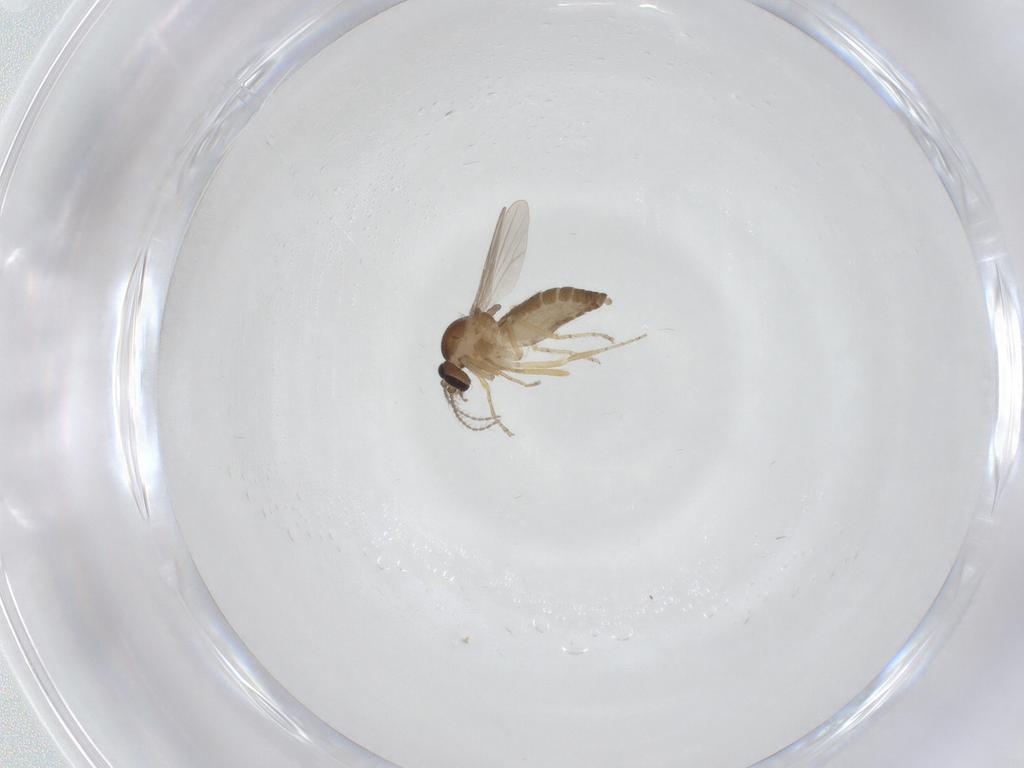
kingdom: Animalia
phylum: Arthropoda
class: Insecta
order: Diptera
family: Ceratopogonidae
